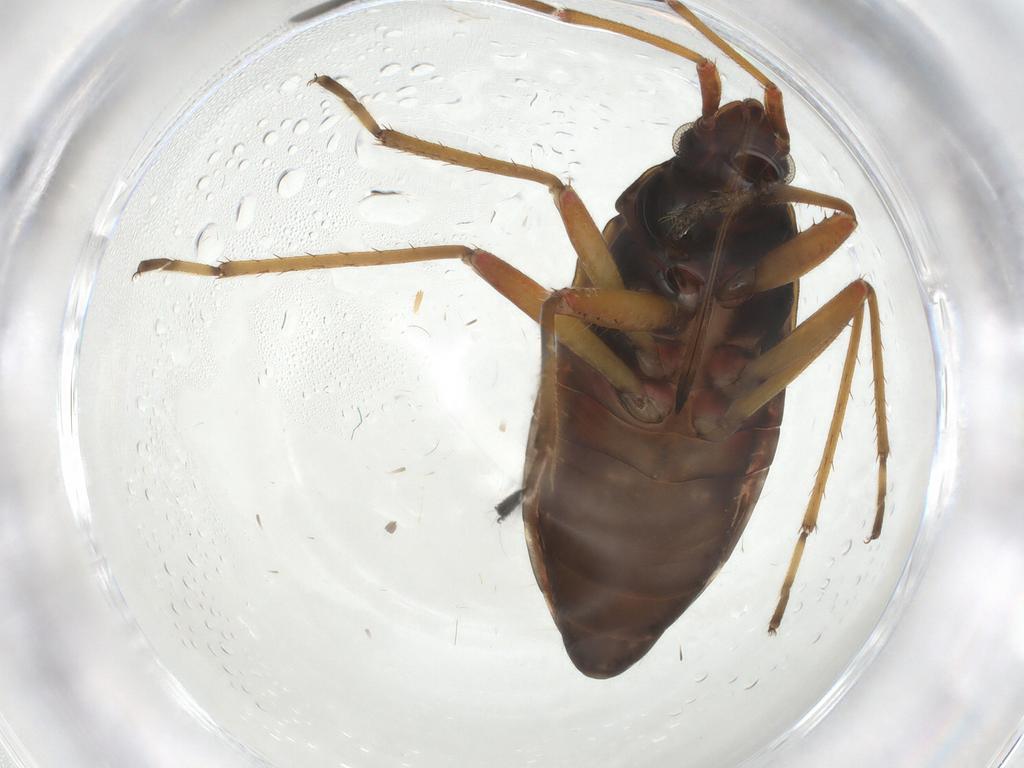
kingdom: Animalia
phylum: Arthropoda
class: Insecta
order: Hemiptera
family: Rhyparochromidae
